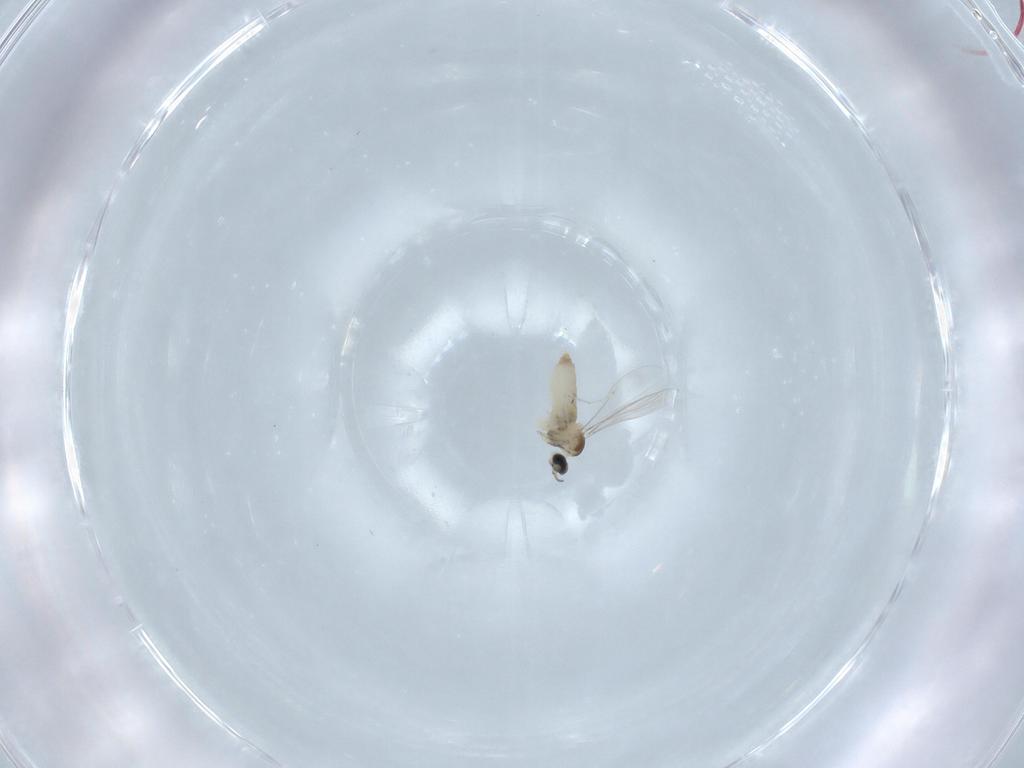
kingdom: Animalia
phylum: Arthropoda
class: Insecta
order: Diptera
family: Cecidomyiidae
